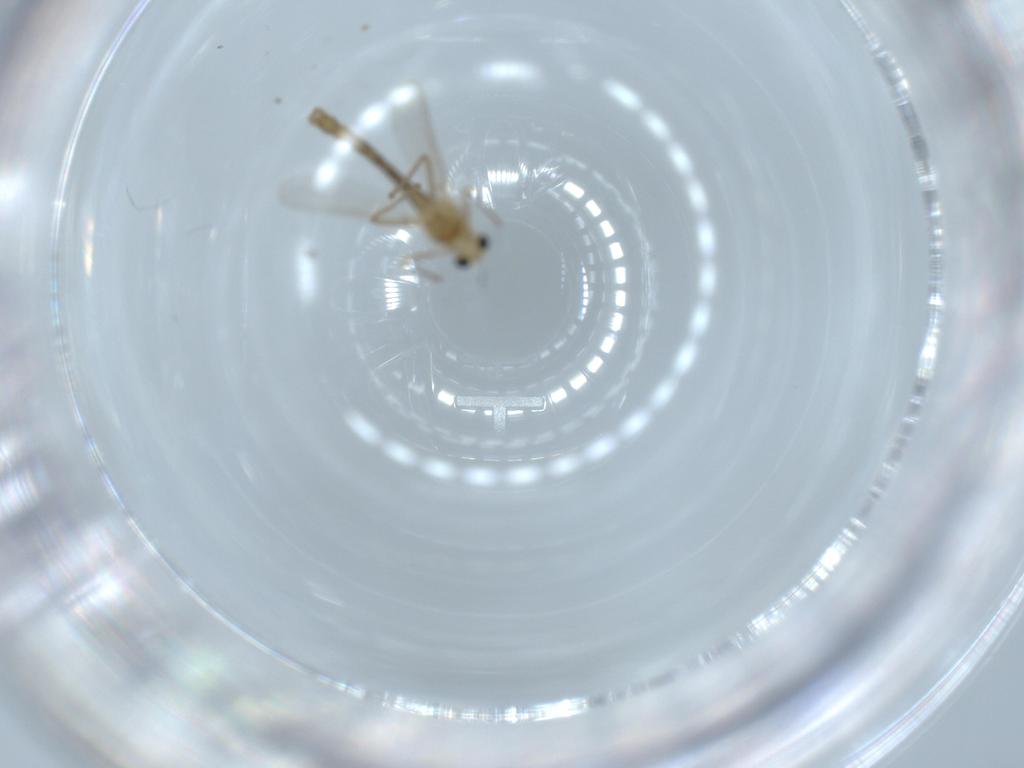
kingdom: Animalia
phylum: Arthropoda
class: Insecta
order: Diptera
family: Chironomidae
